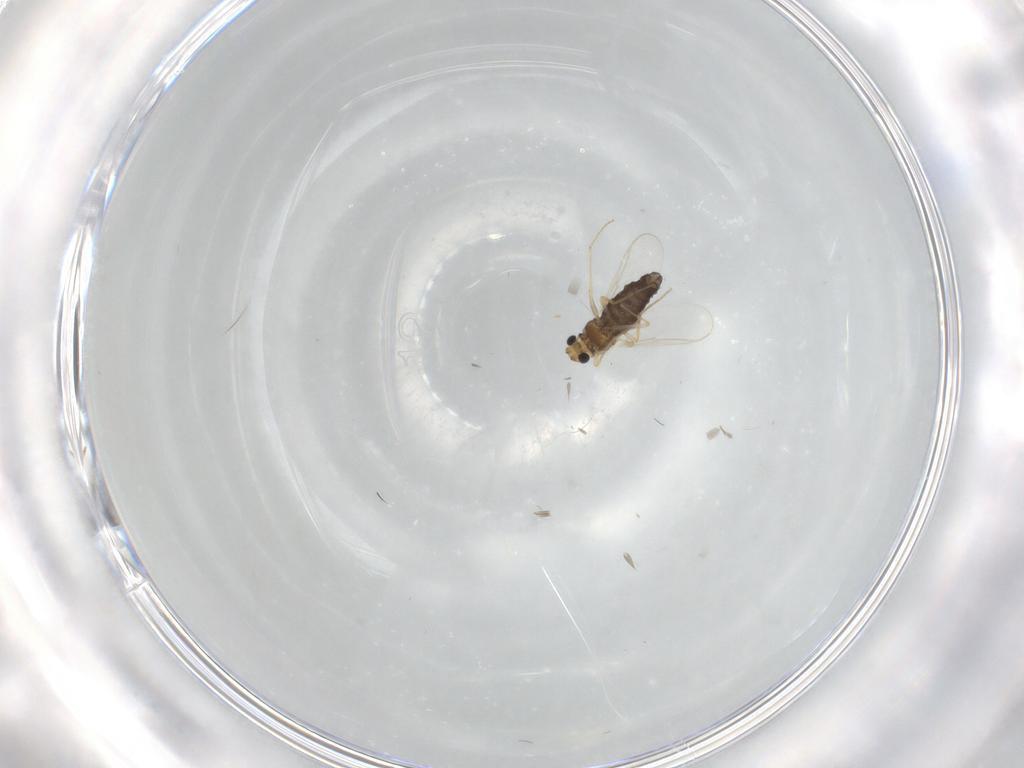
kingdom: Animalia
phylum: Arthropoda
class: Insecta
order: Diptera
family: Chironomidae
